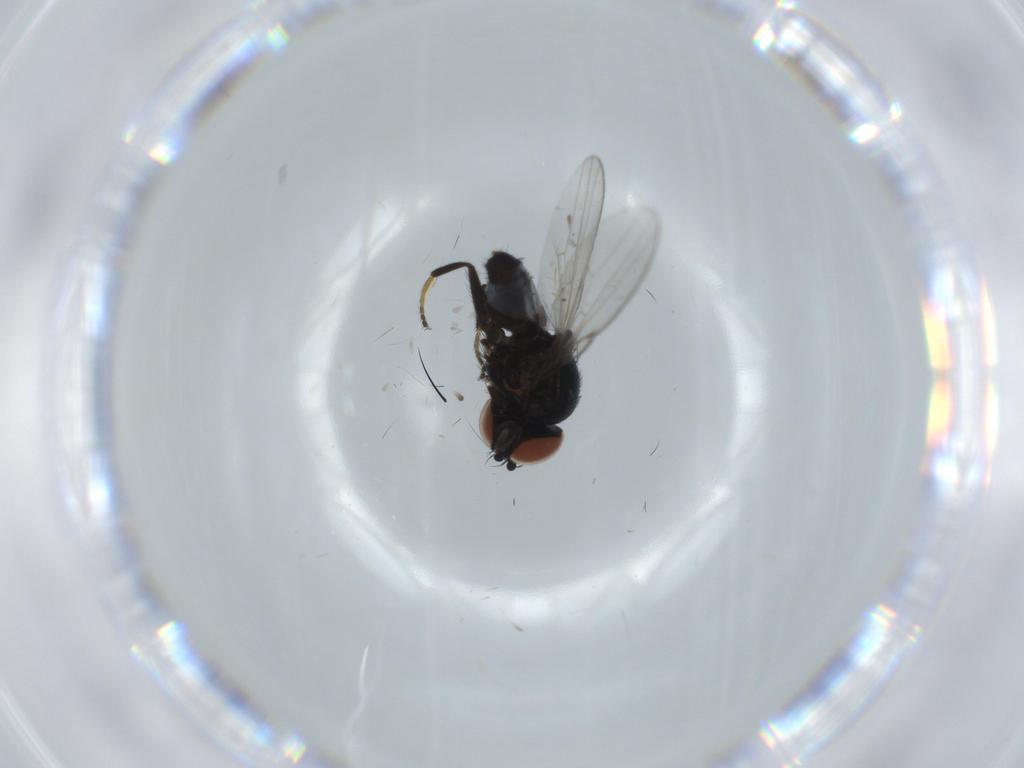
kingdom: Animalia
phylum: Arthropoda
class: Insecta
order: Diptera
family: Milichiidae
